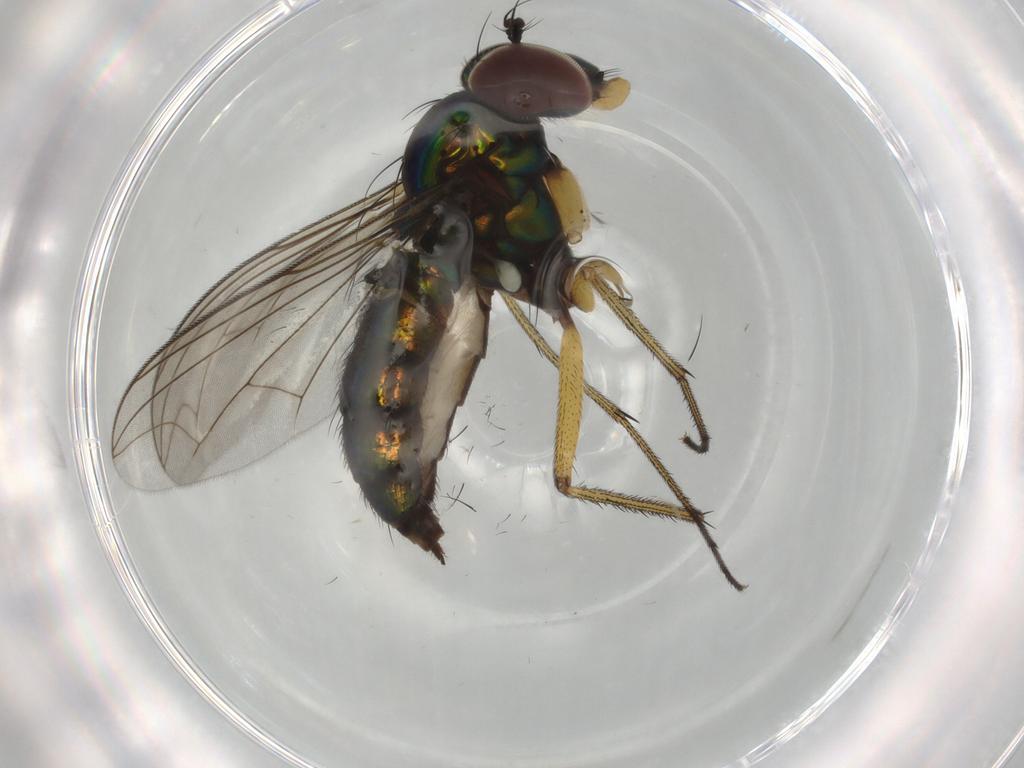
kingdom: Animalia
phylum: Arthropoda
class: Insecta
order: Diptera
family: Dolichopodidae
